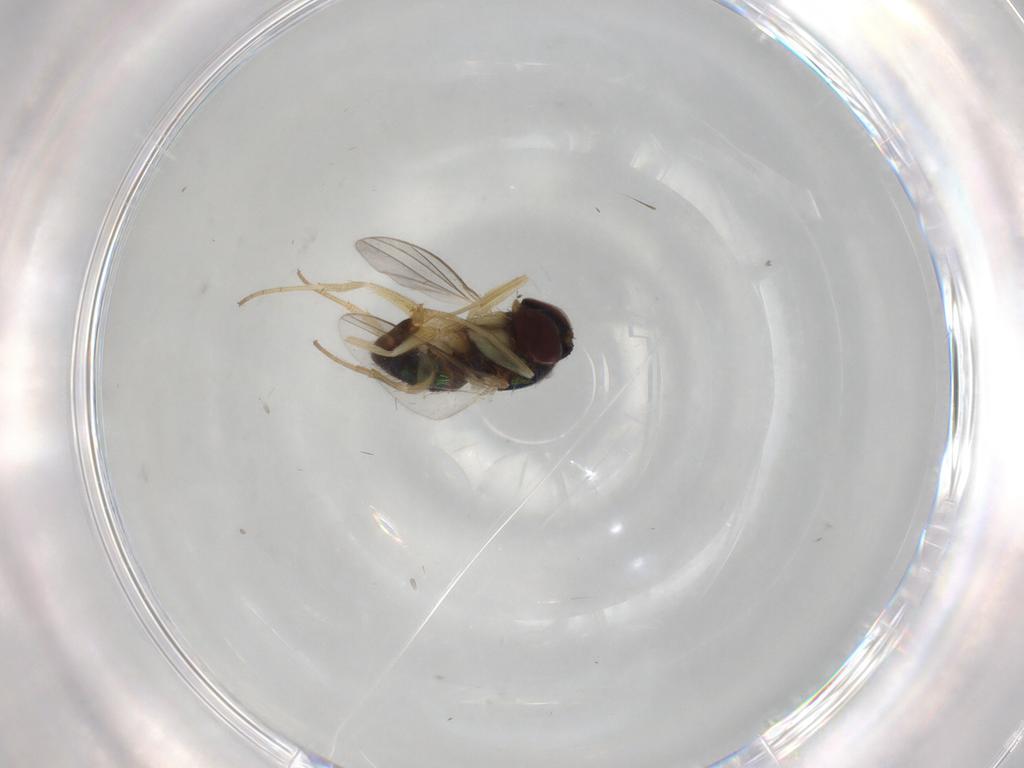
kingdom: Animalia
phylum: Arthropoda
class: Insecta
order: Diptera
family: Dolichopodidae
